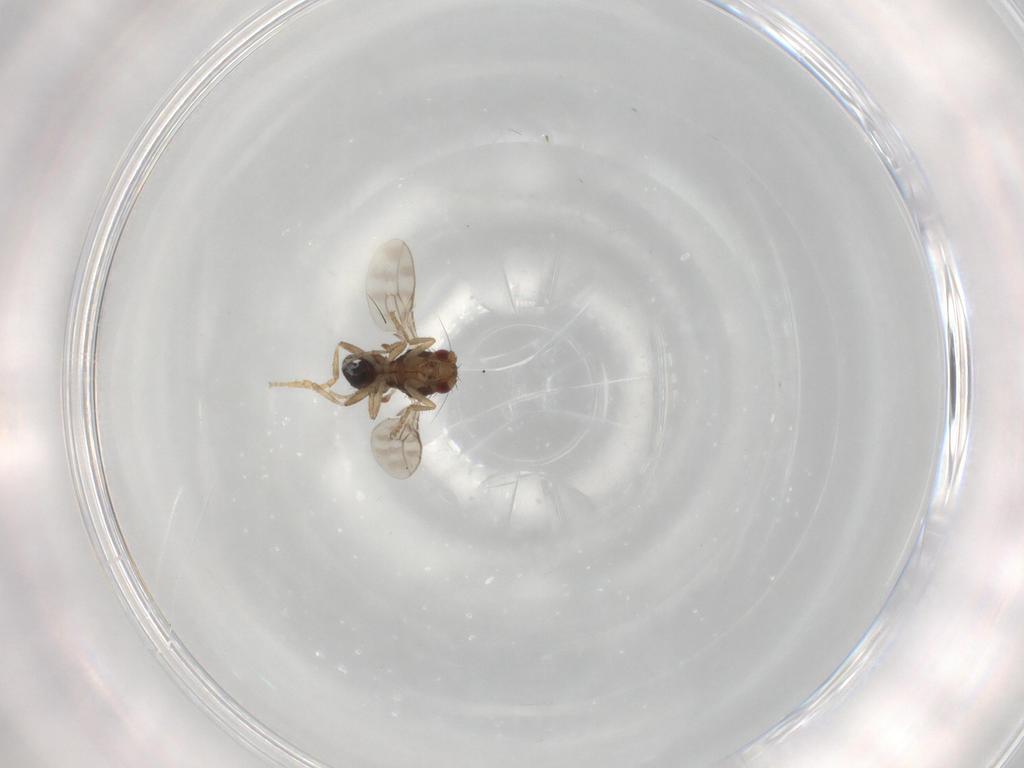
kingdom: Animalia
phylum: Arthropoda
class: Insecta
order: Diptera
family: Sphaeroceridae
